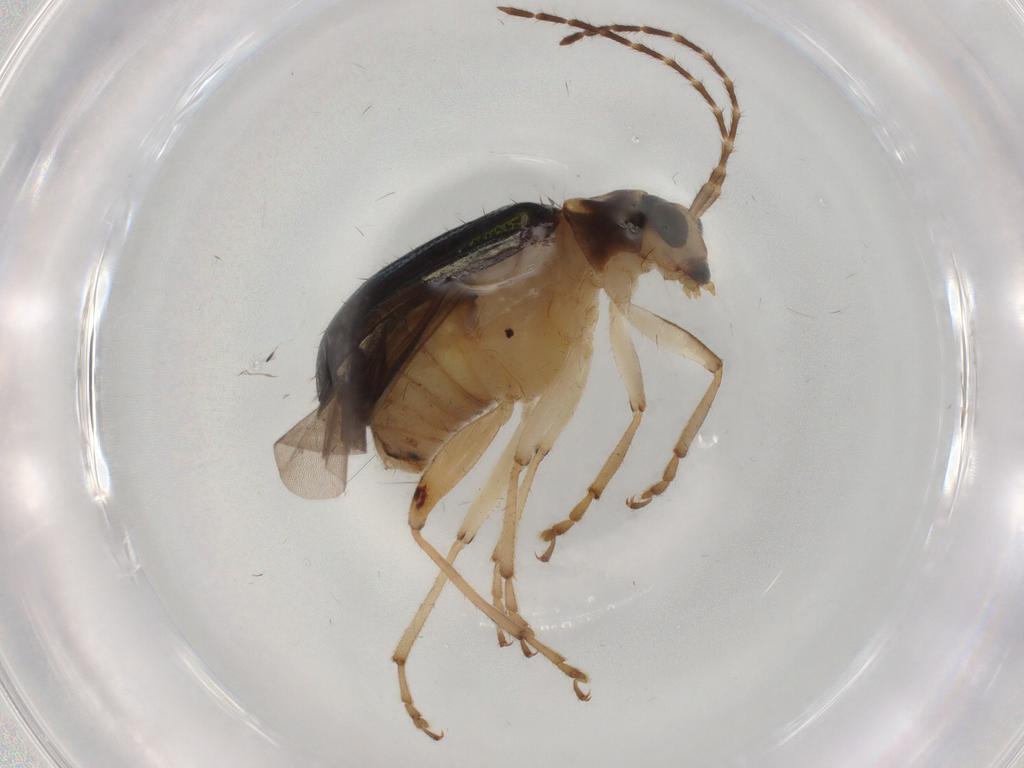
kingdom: Animalia
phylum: Arthropoda
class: Insecta
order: Coleoptera
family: Chrysomelidae
